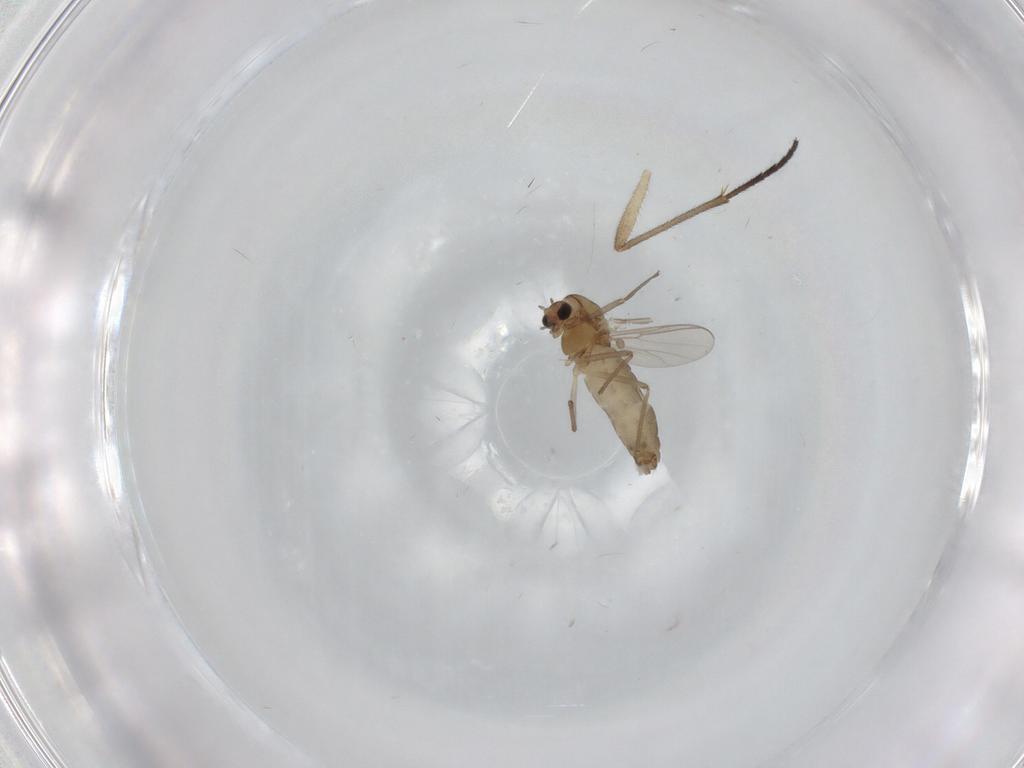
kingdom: Animalia
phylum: Arthropoda
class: Insecta
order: Diptera
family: Chironomidae
